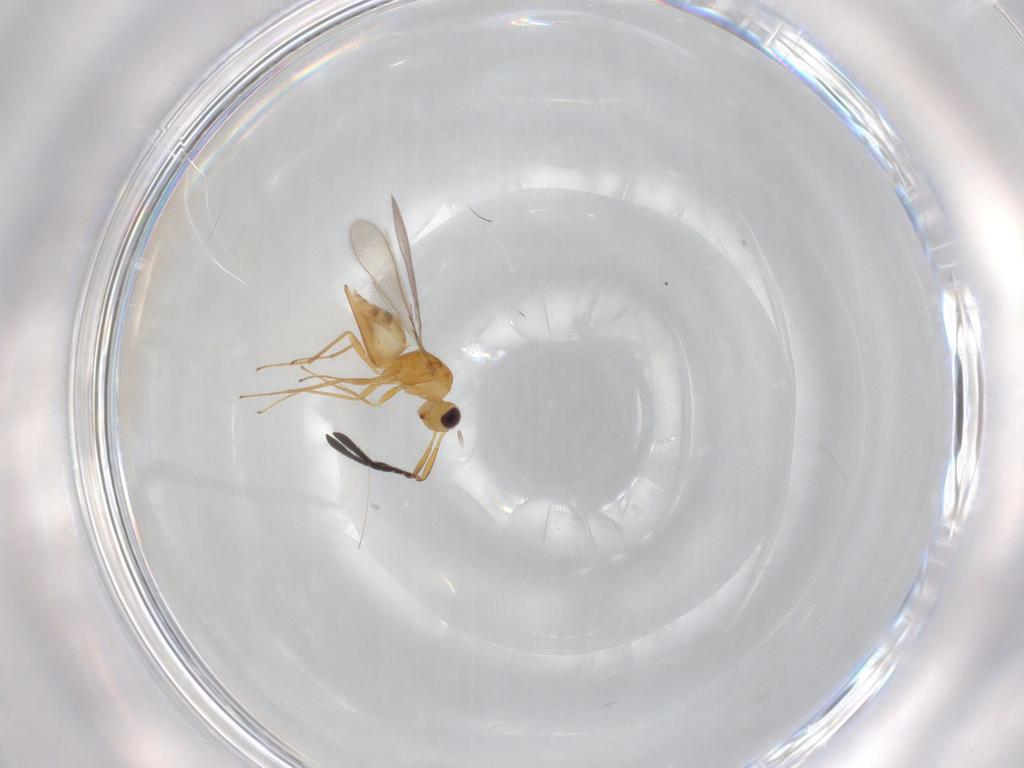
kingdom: Animalia
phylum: Arthropoda
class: Insecta
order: Hymenoptera
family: Mymaridae
